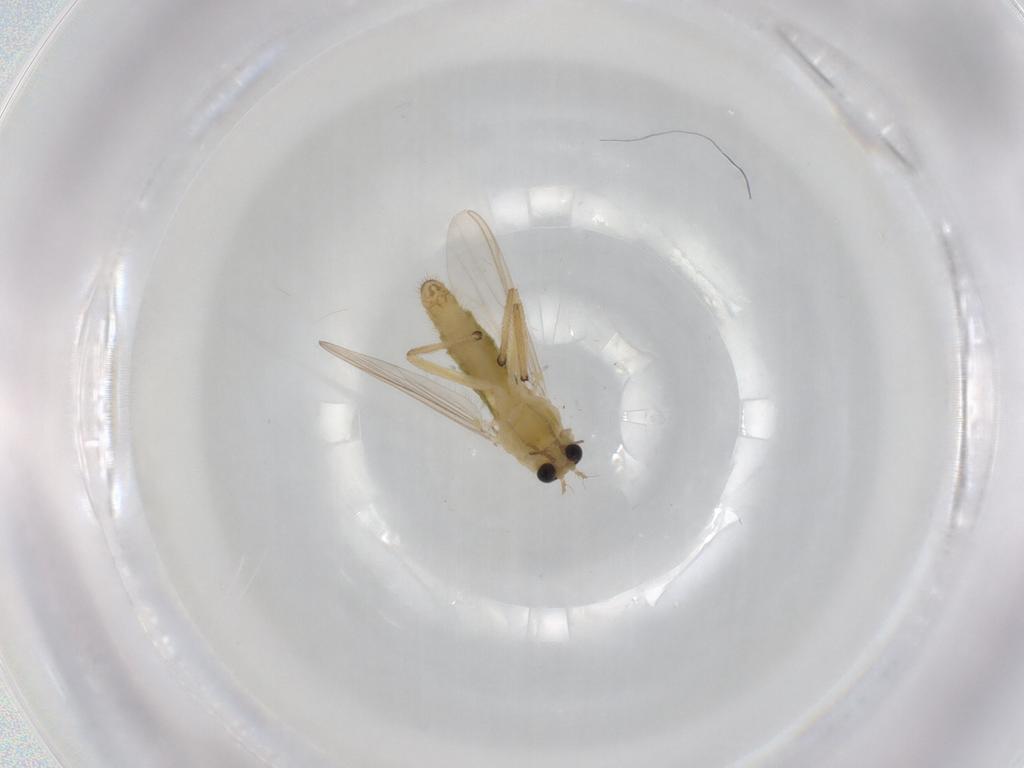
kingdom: Animalia
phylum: Arthropoda
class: Insecta
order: Diptera
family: Chironomidae
